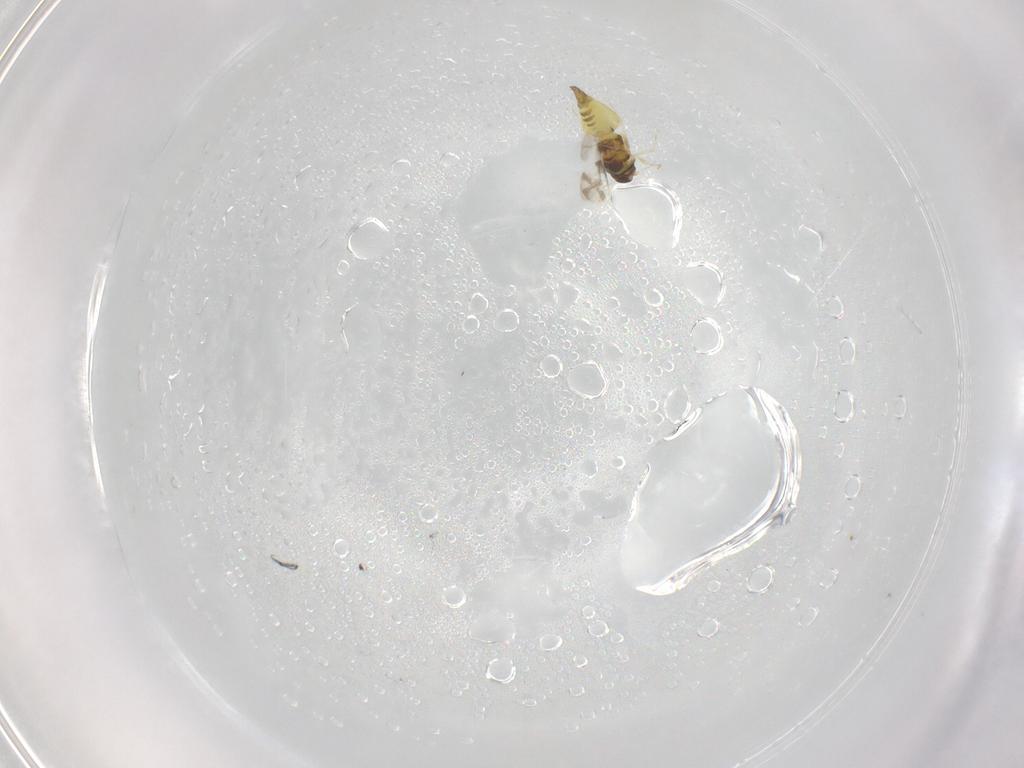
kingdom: Animalia
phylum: Arthropoda
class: Insecta
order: Hemiptera
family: Aleyrodidae
